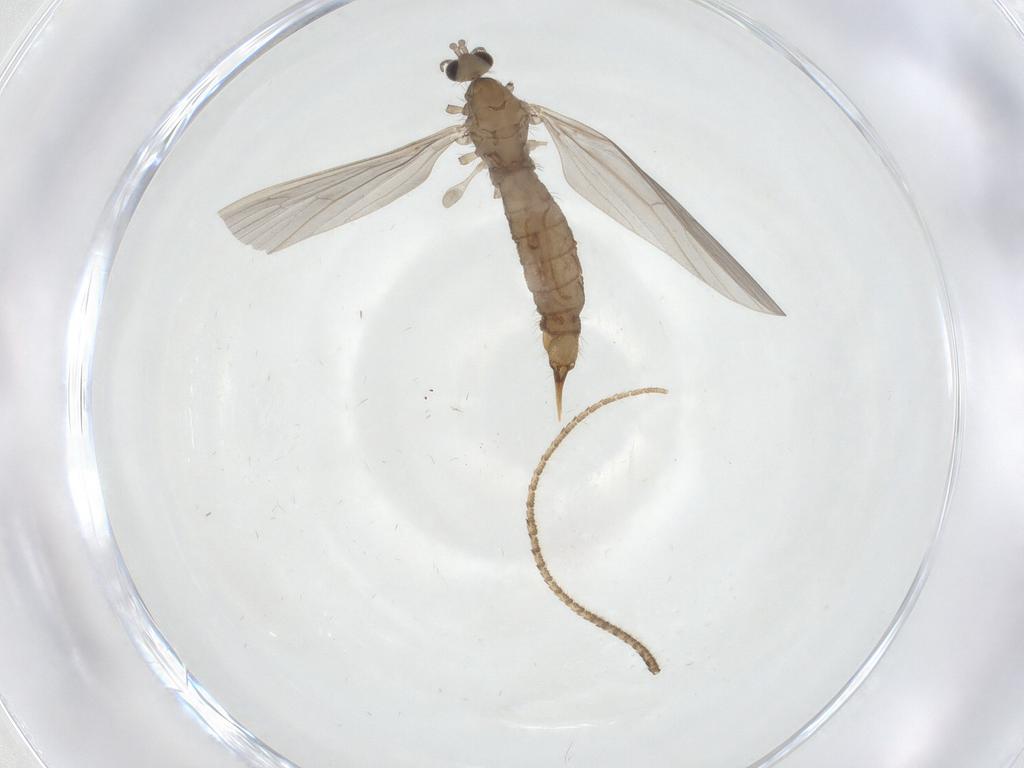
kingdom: Animalia
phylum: Arthropoda
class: Insecta
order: Diptera
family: Limoniidae
